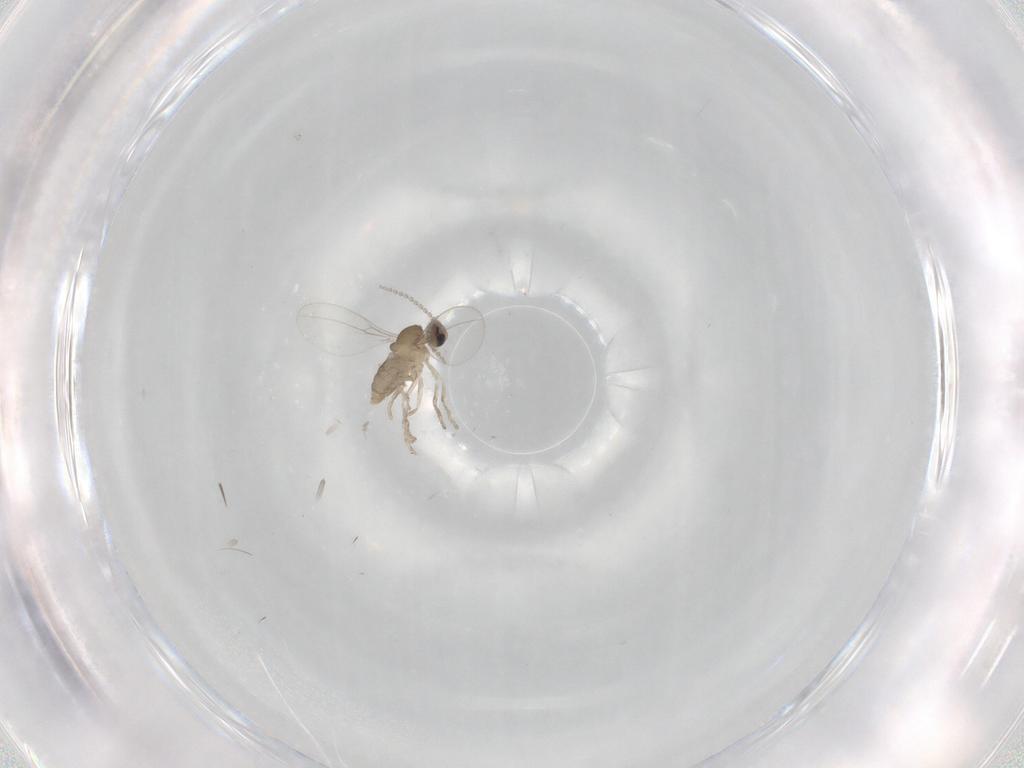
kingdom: Animalia
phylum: Arthropoda
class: Insecta
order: Diptera
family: Cecidomyiidae
